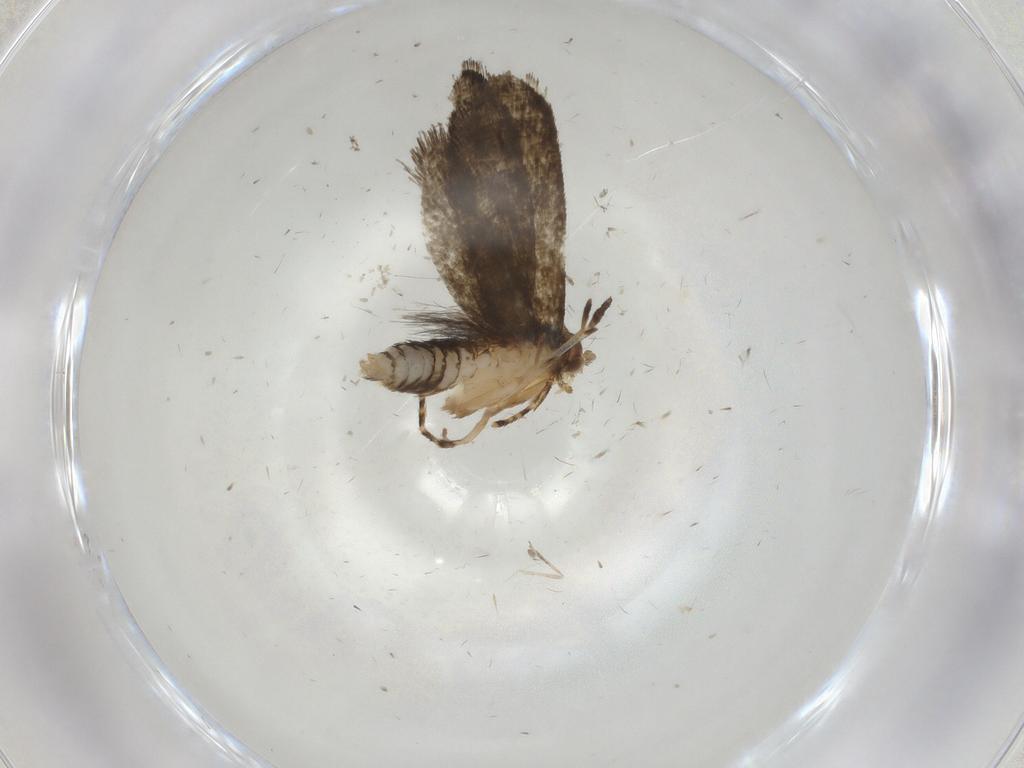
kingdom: Animalia
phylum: Arthropoda
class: Insecta
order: Lepidoptera
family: Tineidae
